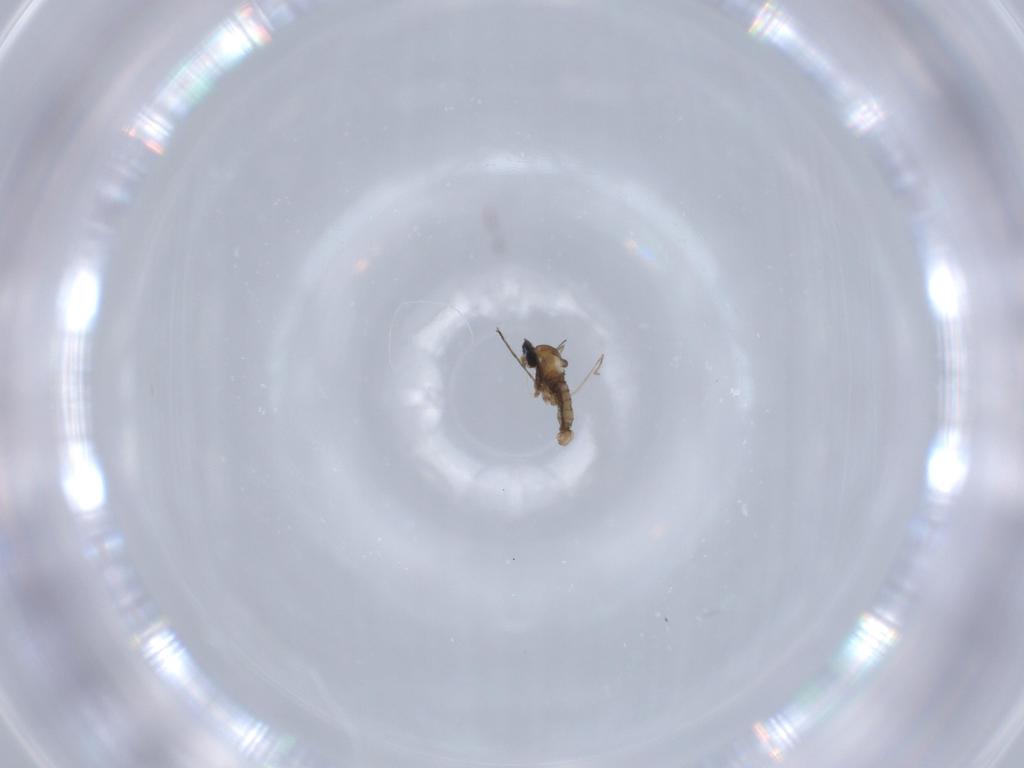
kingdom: Animalia
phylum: Arthropoda
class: Insecta
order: Diptera
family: Cecidomyiidae
